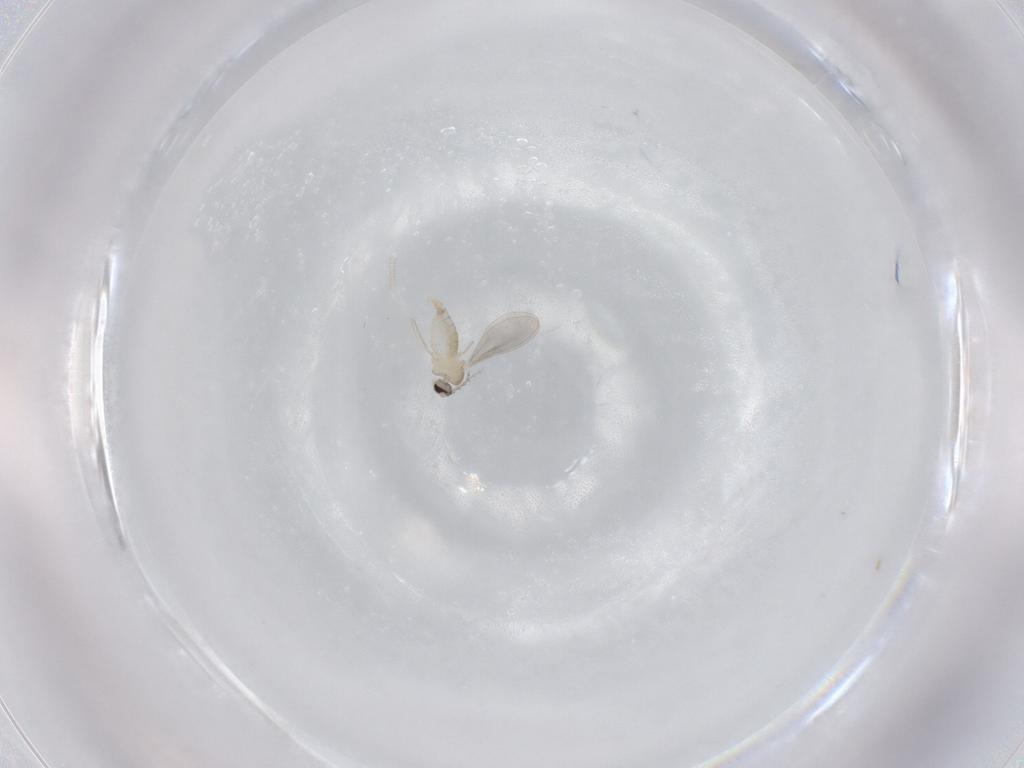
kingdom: Animalia
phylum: Arthropoda
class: Insecta
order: Diptera
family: Cecidomyiidae
